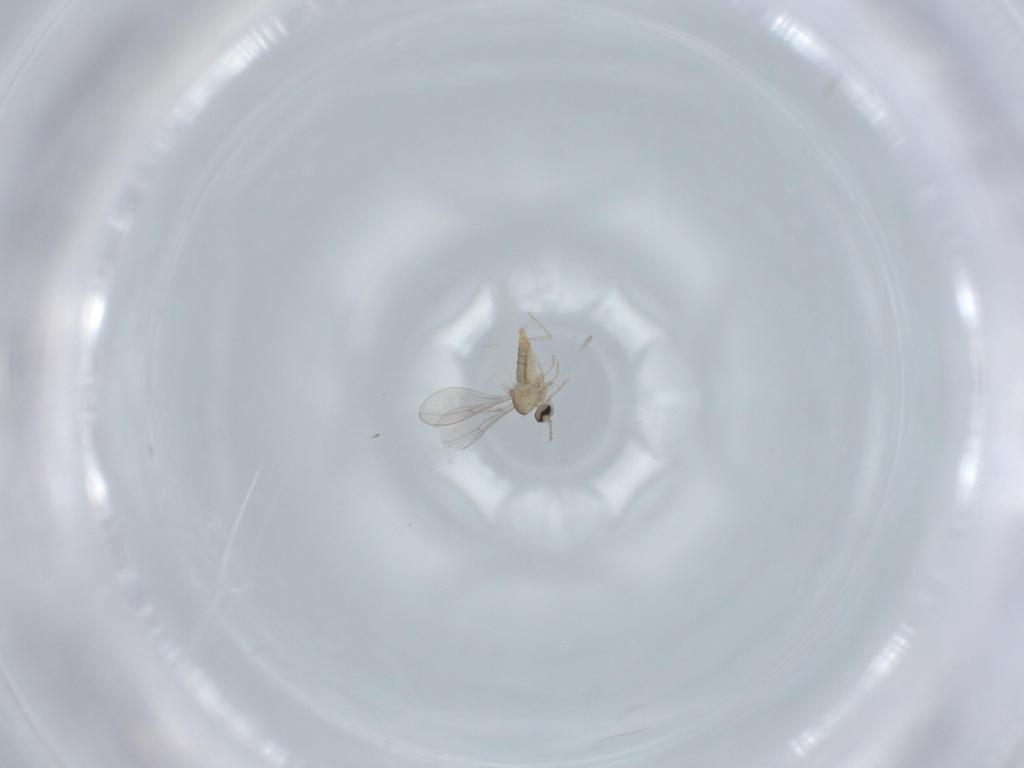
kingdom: Animalia
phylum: Arthropoda
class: Insecta
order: Diptera
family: Cecidomyiidae
